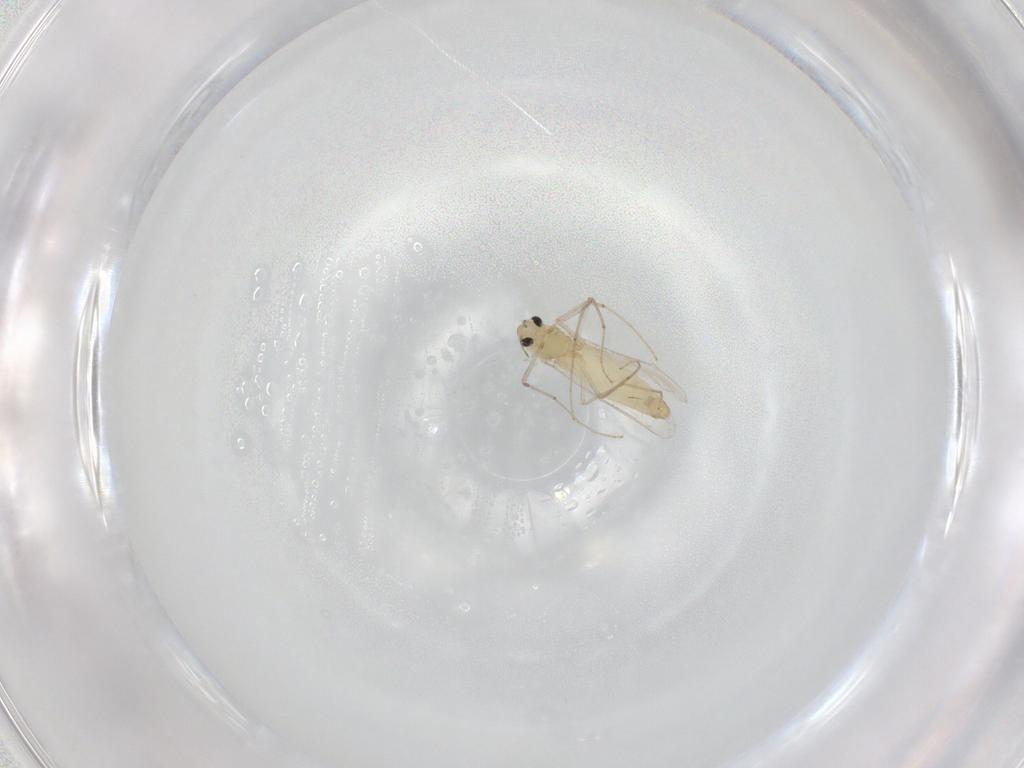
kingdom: Animalia
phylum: Arthropoda
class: Insecta
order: Diptera
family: Chironomidae
